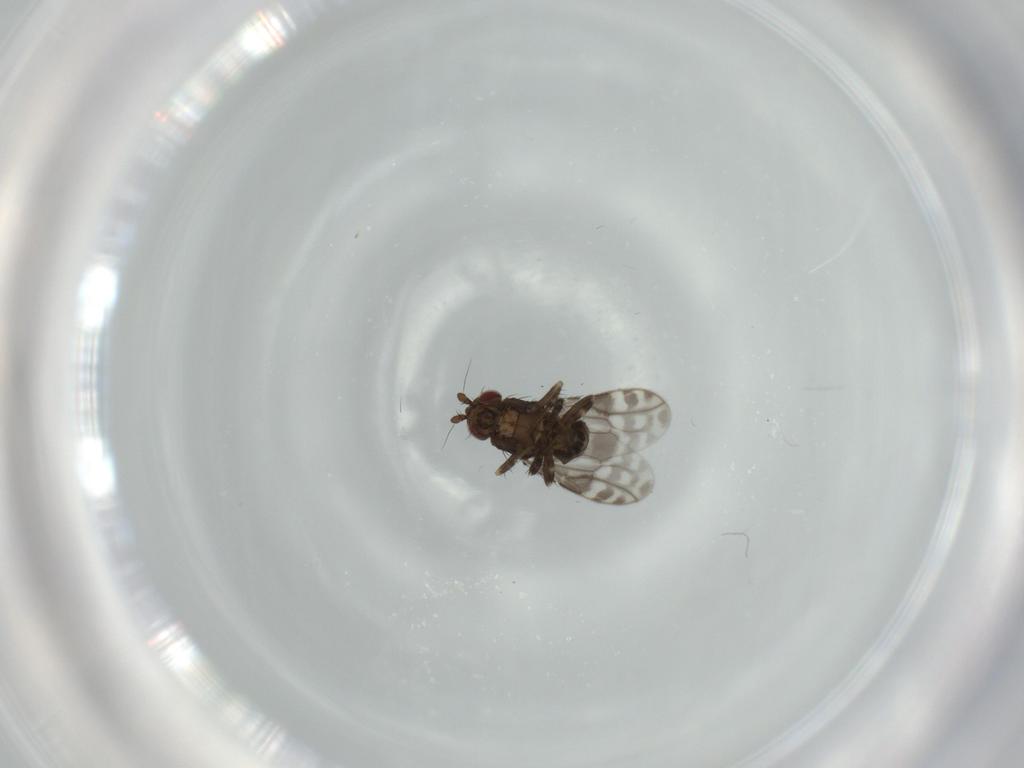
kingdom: Animalia
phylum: Arthropoda
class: Insecta
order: Diptera
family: Sphaeroceridae
